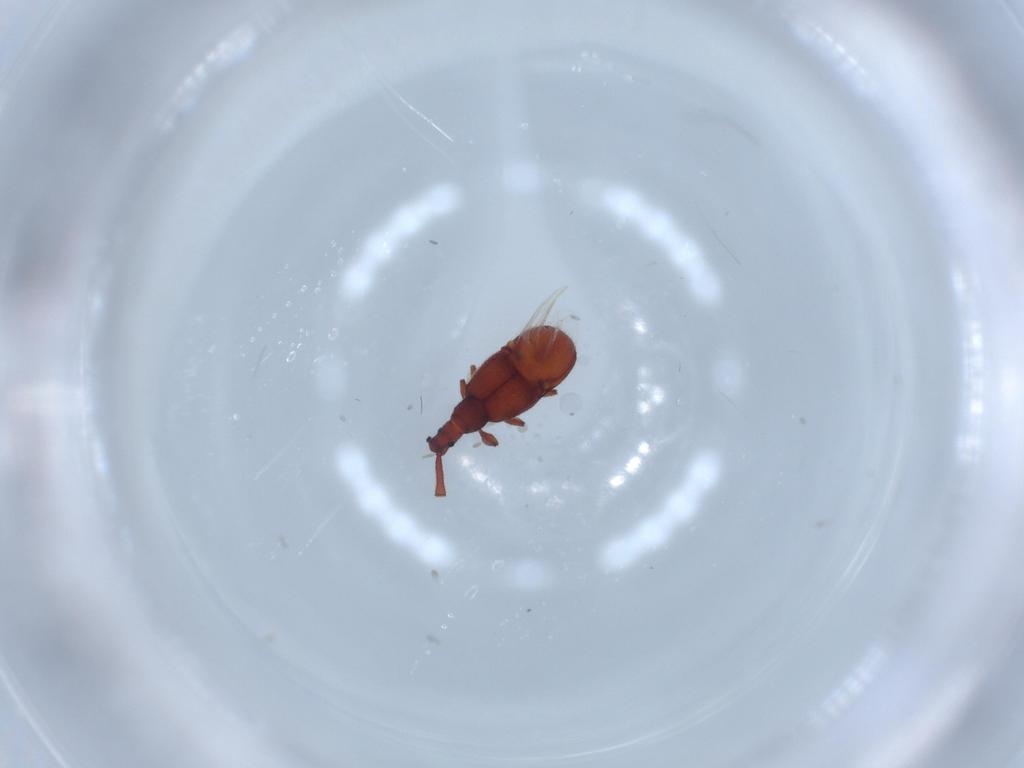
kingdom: Animalia
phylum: Arthropoda
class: Insecta
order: Coleoptera
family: Staphylinidae
